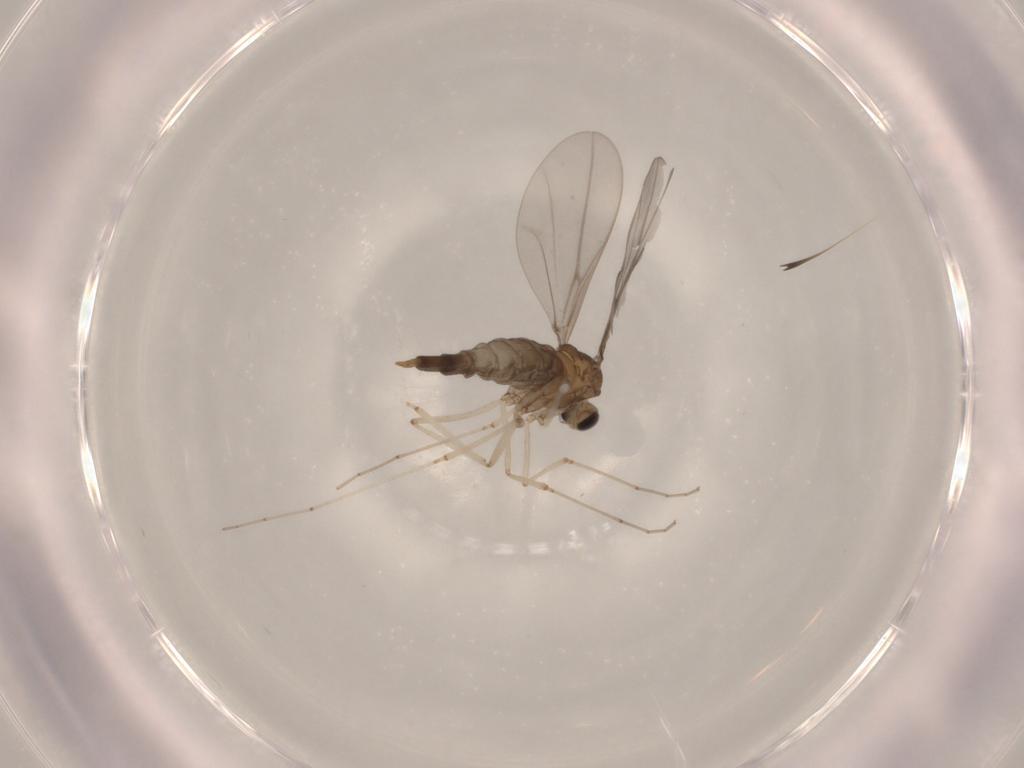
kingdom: Animalia
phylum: Arthropoda
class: Insecta
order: Diptera
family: Cecidomyiidae
